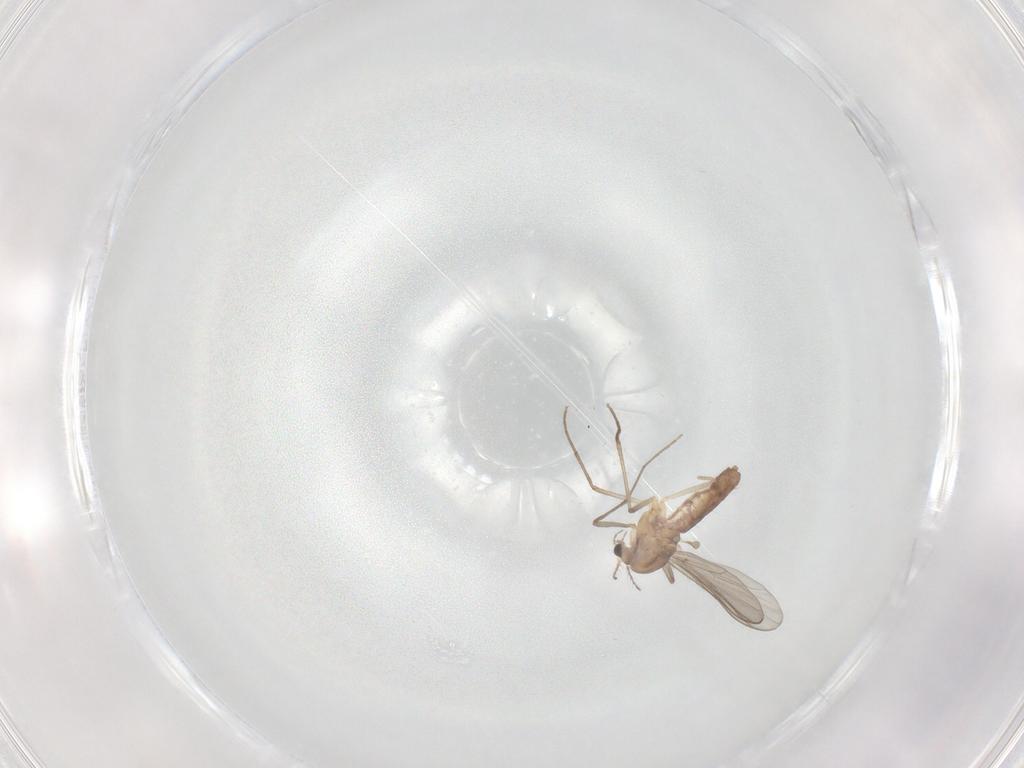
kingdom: Animalia
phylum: Arthropoda
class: Insecta
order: Diptera
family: Chironomidae
